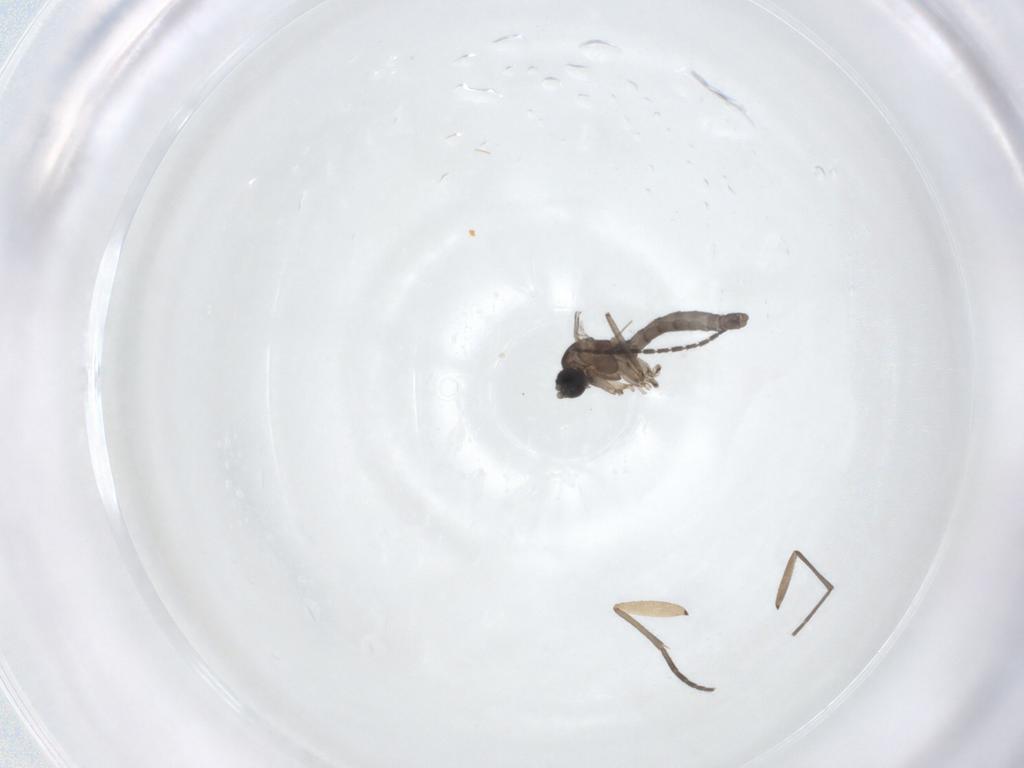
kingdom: Animalia
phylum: Arthropoda
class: Insecta
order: Diptera
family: Sciaridae
